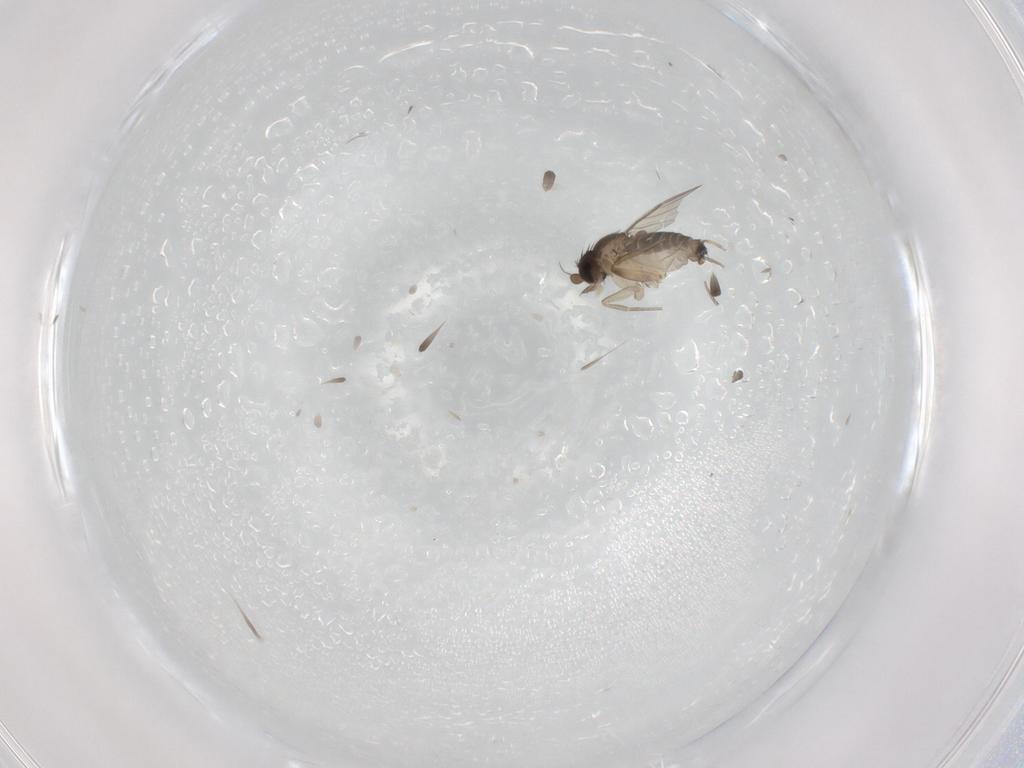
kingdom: Animalia
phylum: Arthropoda
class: Insecta
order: Diptera
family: Phoridae
